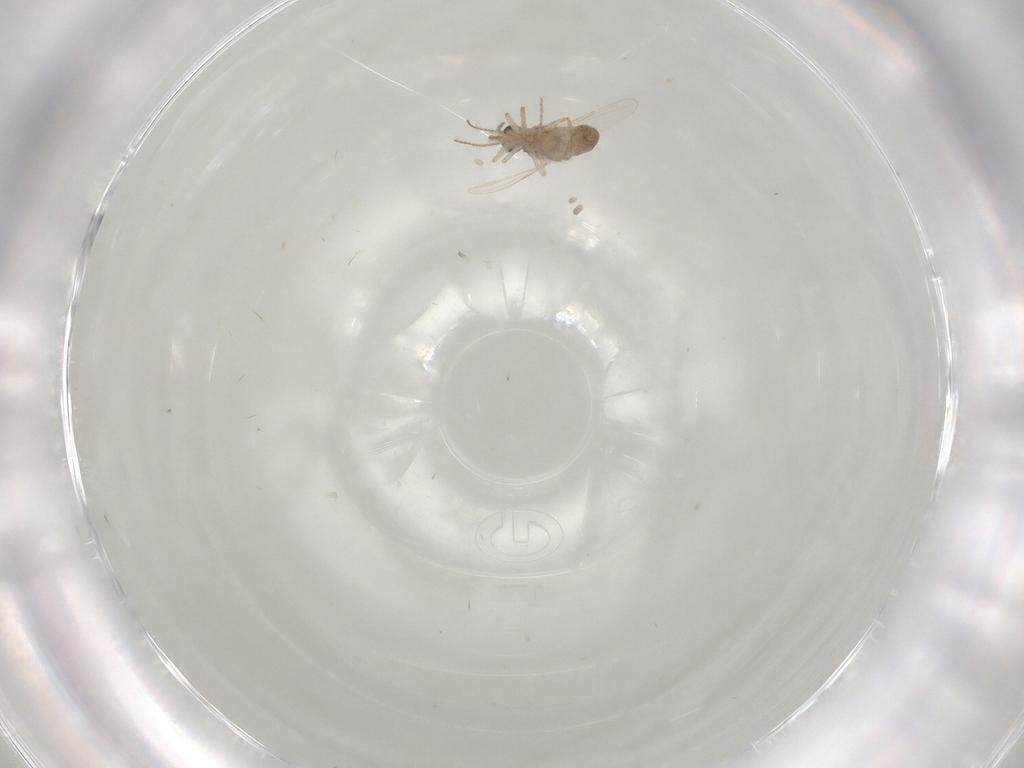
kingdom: Animalia
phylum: Arthropoda
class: Insecta
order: Diptera
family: Ceratopogonidae
